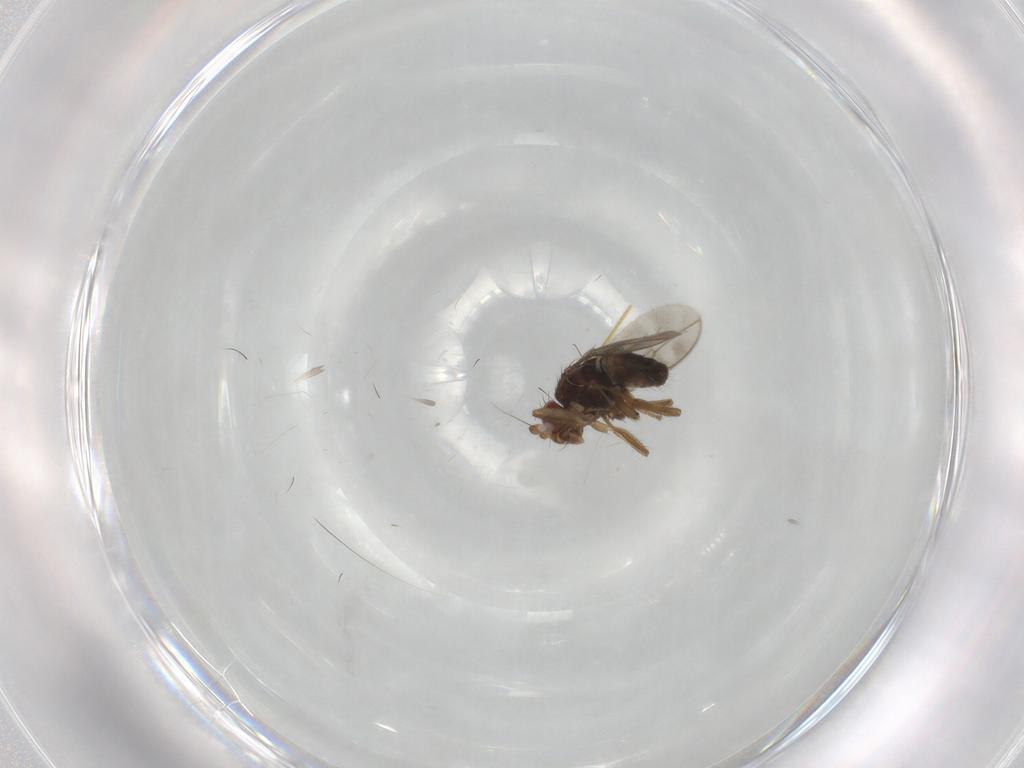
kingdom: Animalia
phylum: Arthropoda
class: Insecta
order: Diptera
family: Sphaeroceridae
